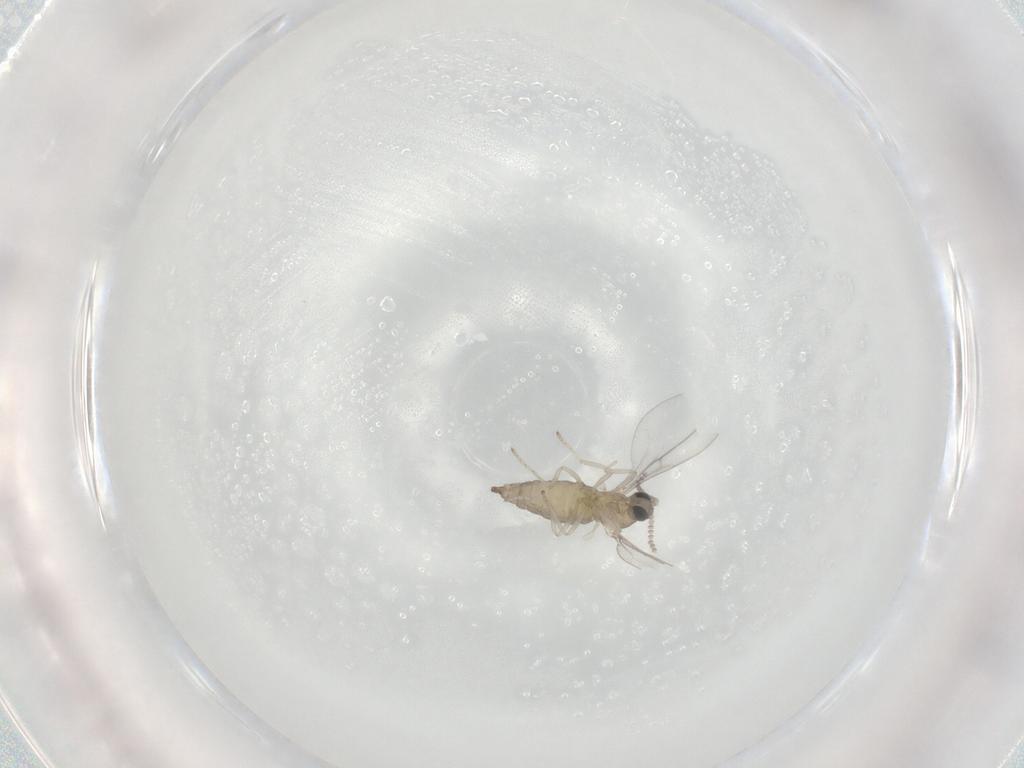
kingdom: Animalia
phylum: Arthropoda
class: Insecta
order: Diptera
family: Cecidomyiidae
